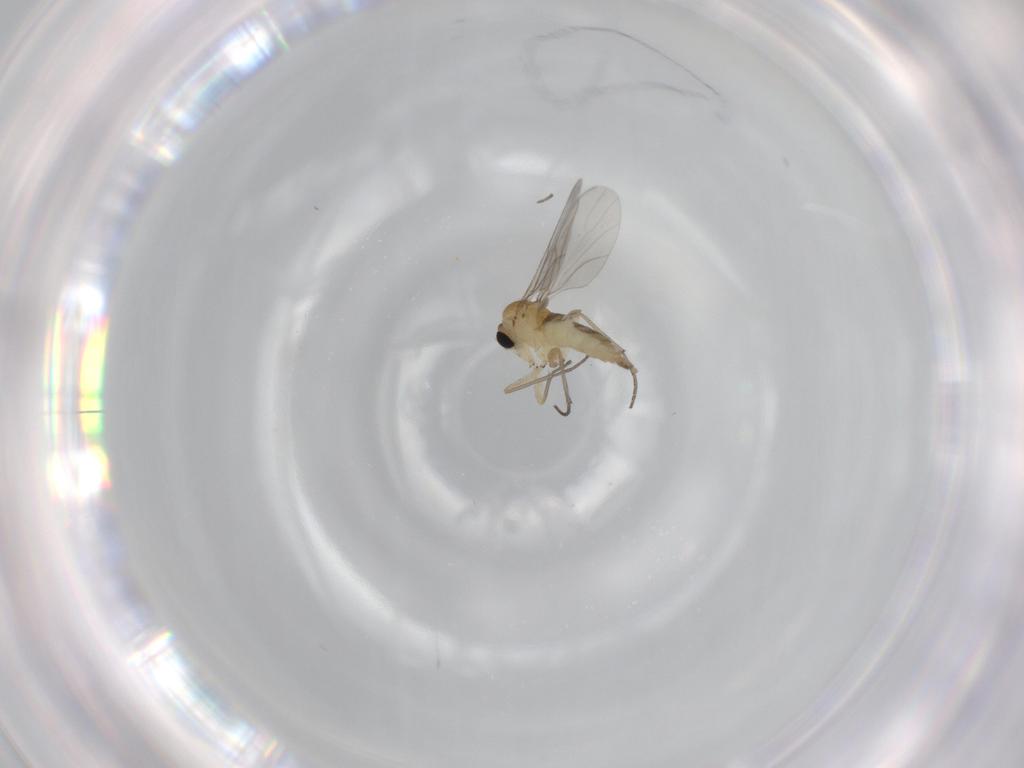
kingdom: Animalia
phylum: Arthropoda
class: Insecta
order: Diptera
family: Sciaridae
